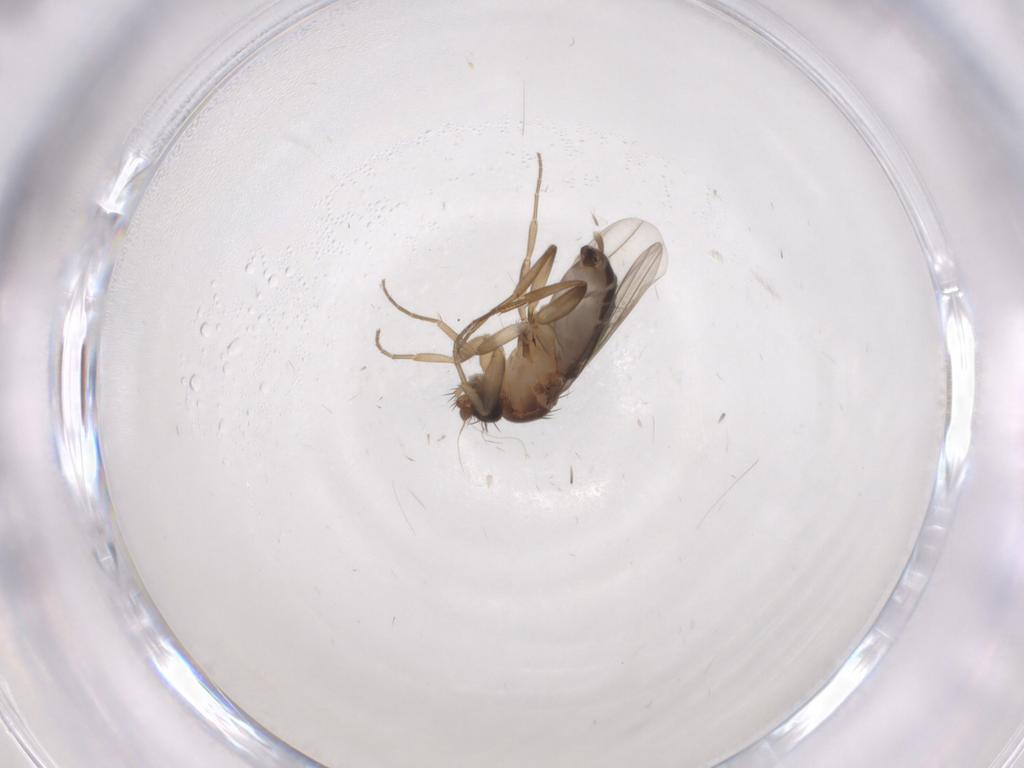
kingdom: Animalia
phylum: Arthropoda
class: Insecta
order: Diptera
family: Phoridae
